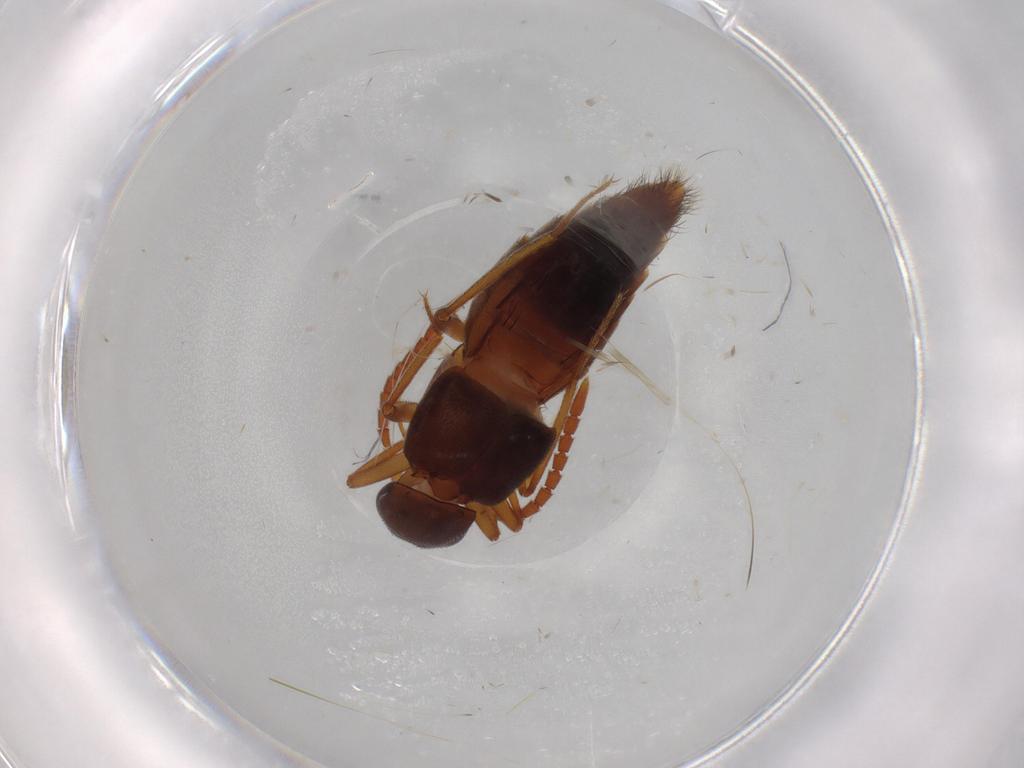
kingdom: Animalia
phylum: Arthropoda
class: Insecta
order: Coleoptera
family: Staphylinidae
